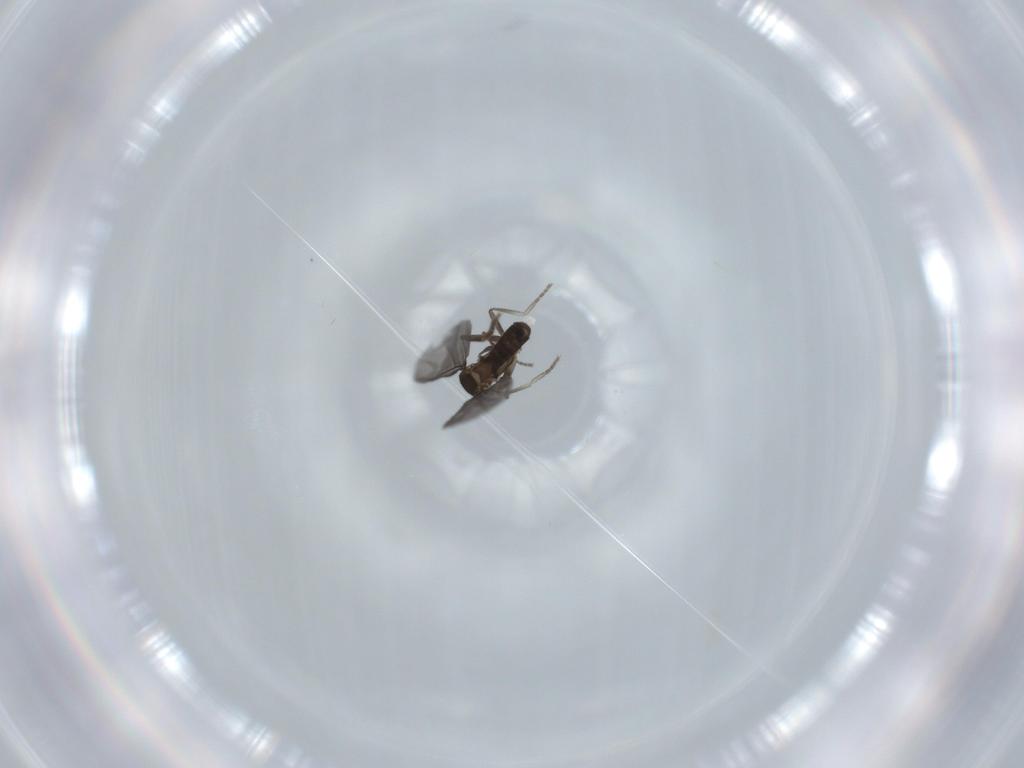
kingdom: Animalia
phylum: Arthropoda
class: Insecta
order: Diptera
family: Phoridae
